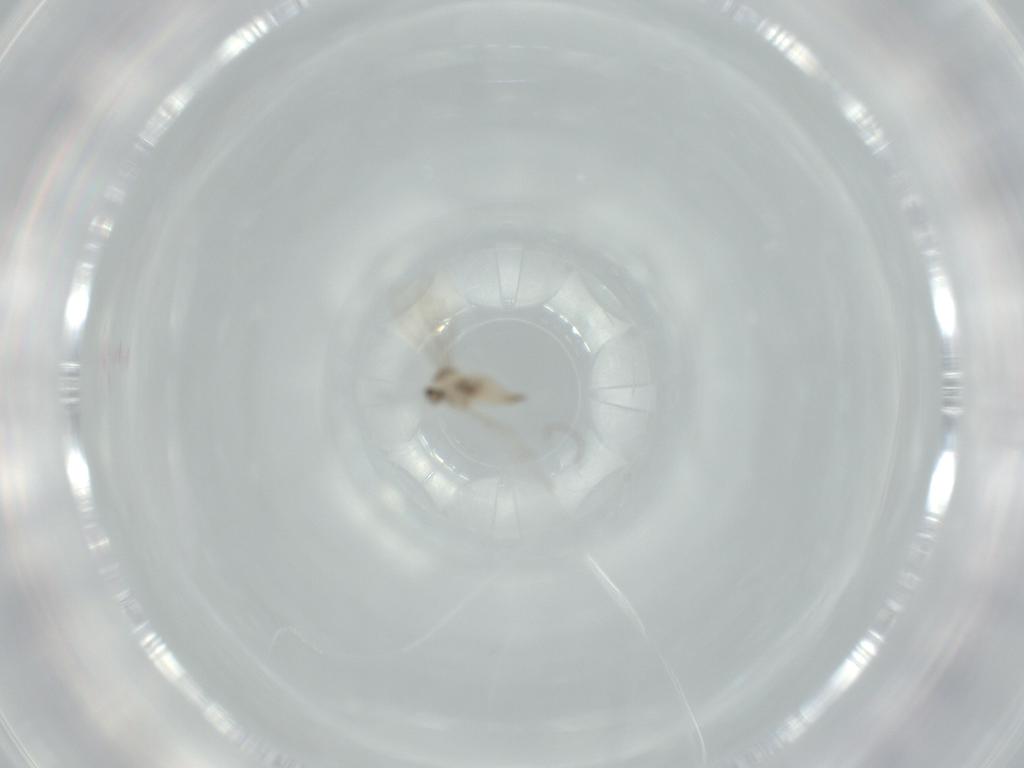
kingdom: Animalia
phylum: Arthropoda
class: Insecta
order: Diptera
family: Cecidomyiidae
